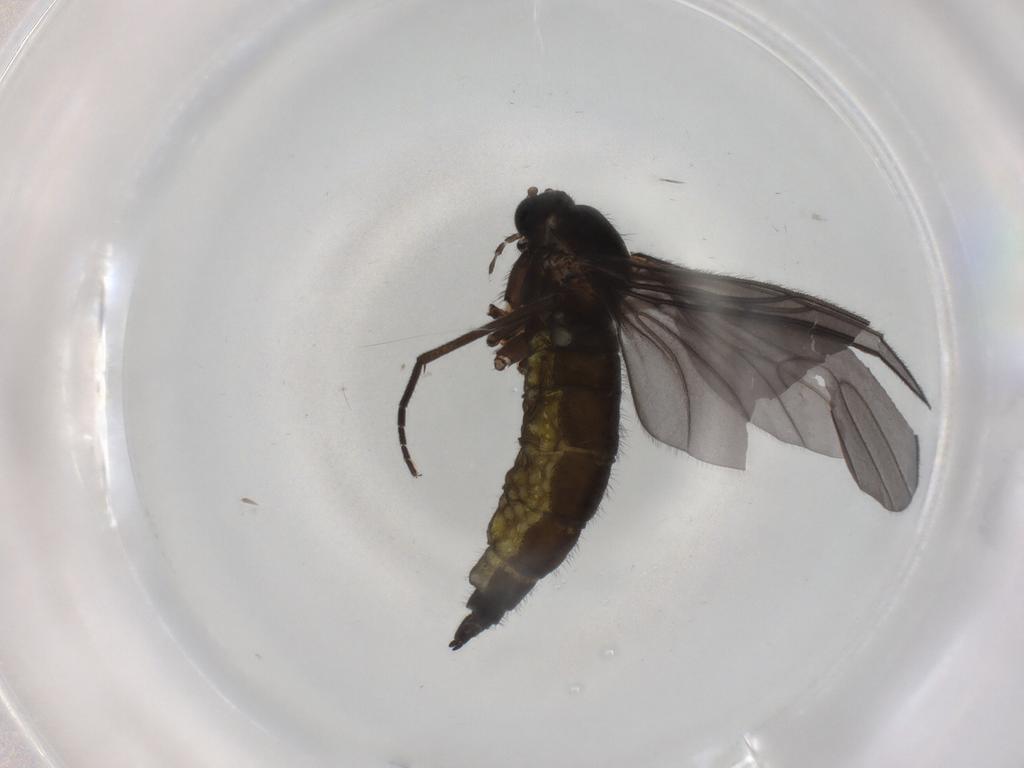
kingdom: Animalia
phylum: Arthropoda
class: Insecta
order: Diptera
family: Sciaridae
